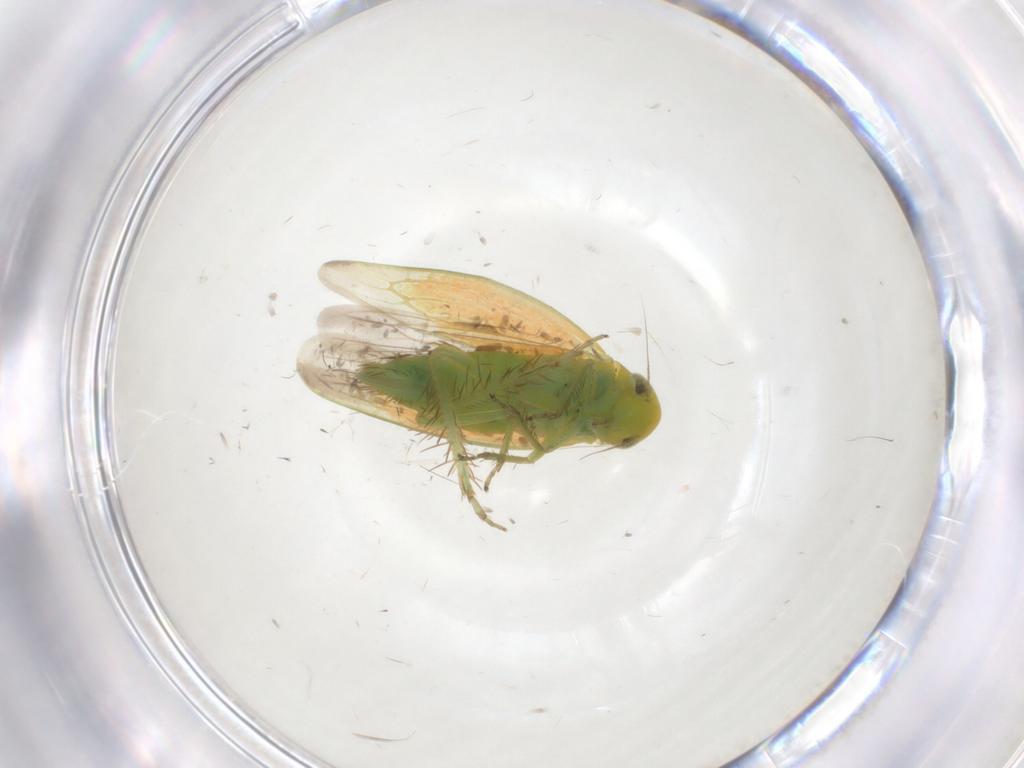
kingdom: Animalia
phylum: Arthropoda
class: Insecta
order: Hemiptera
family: Cicadellidae
